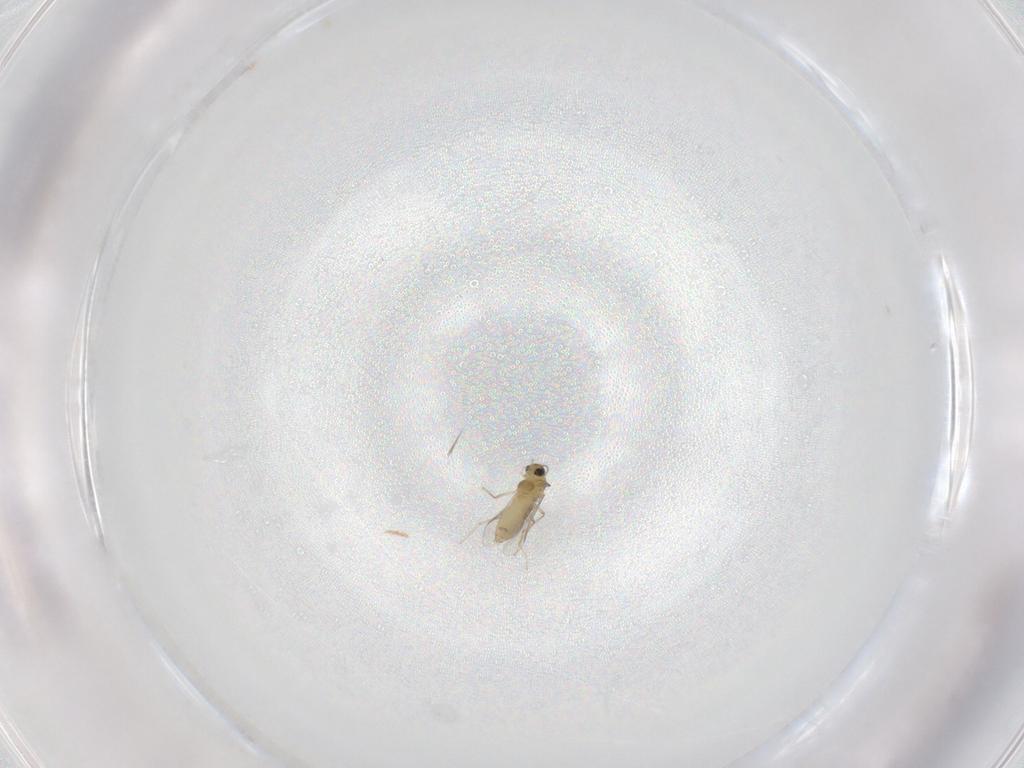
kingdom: Animalia
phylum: Arthropoda
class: Insecta
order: Diptera
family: Chironomidae
